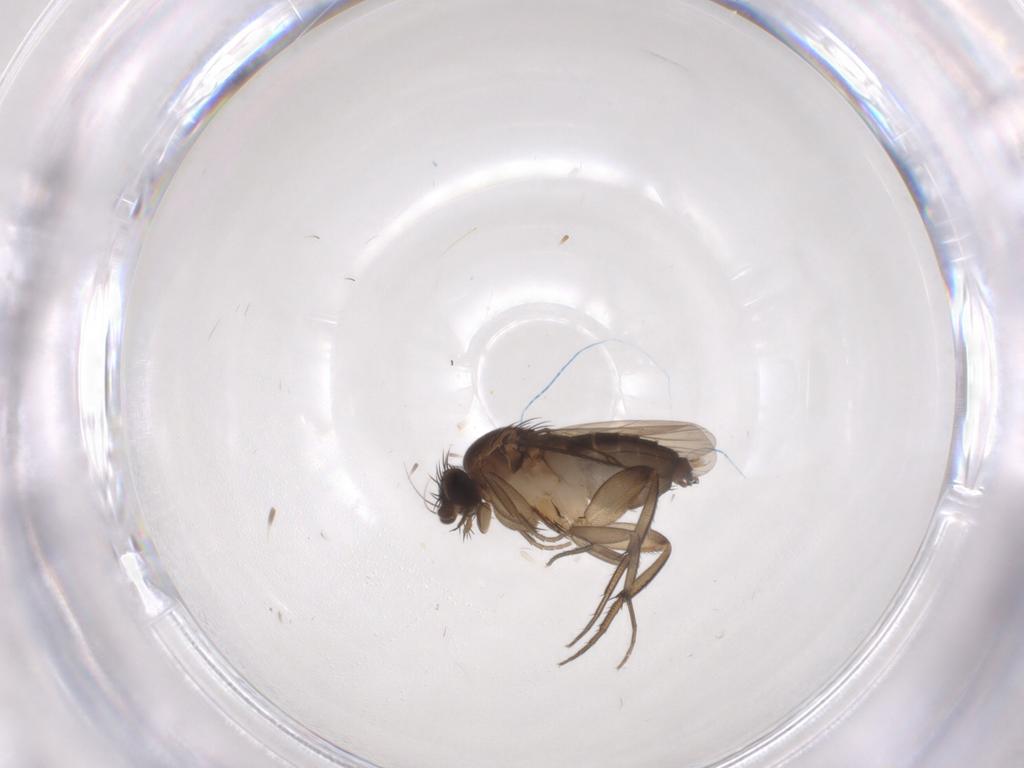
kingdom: Animalia
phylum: Arthropoda
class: Insecta
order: Diptera
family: Phoridae
